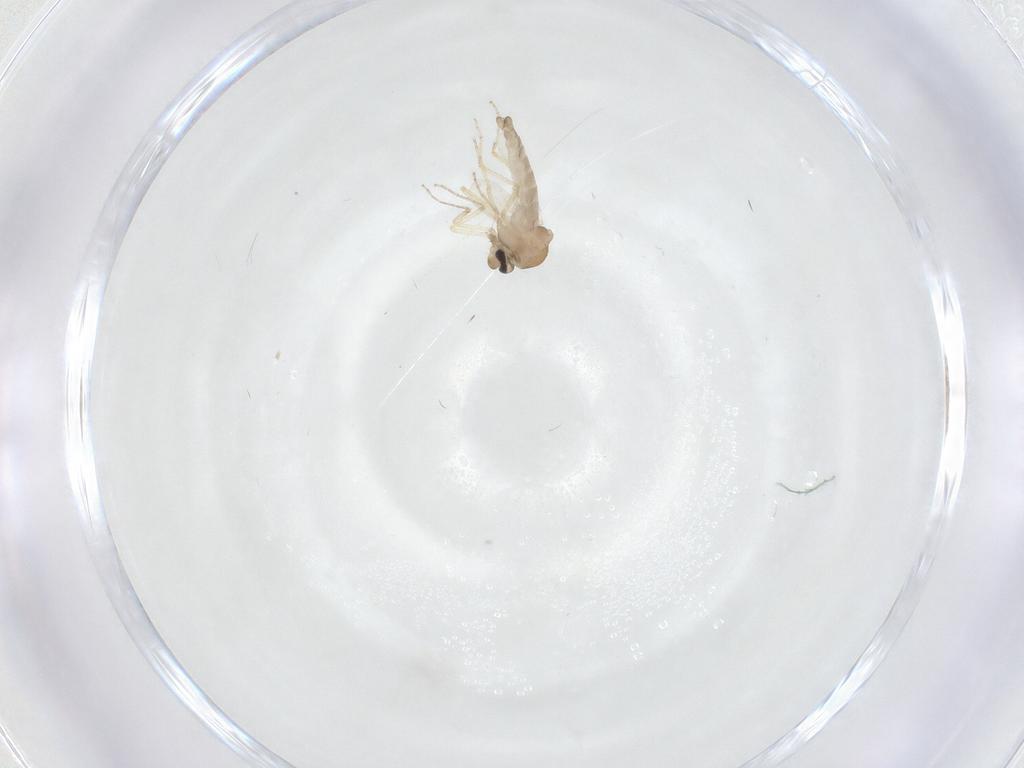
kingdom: Animalia
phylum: Arthropoda
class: Insecta
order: Diptera
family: Ceratopogonidae
